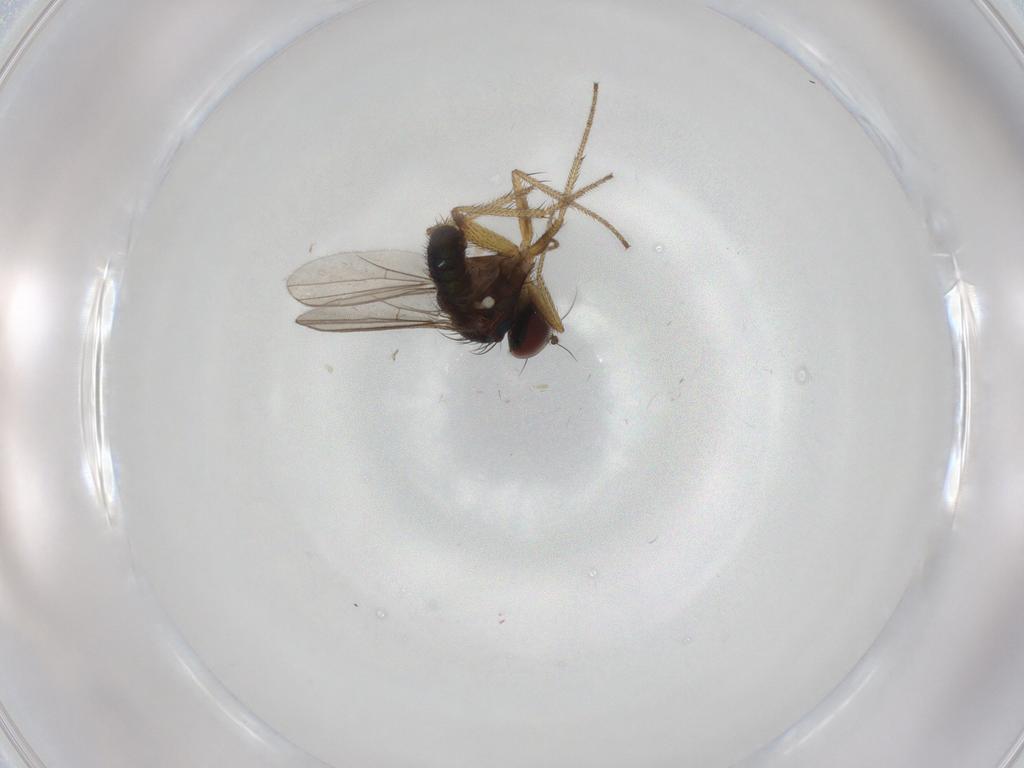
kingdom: Animalia
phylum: Arthropoda
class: Insecta
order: Diptera
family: Dolichopodidae
